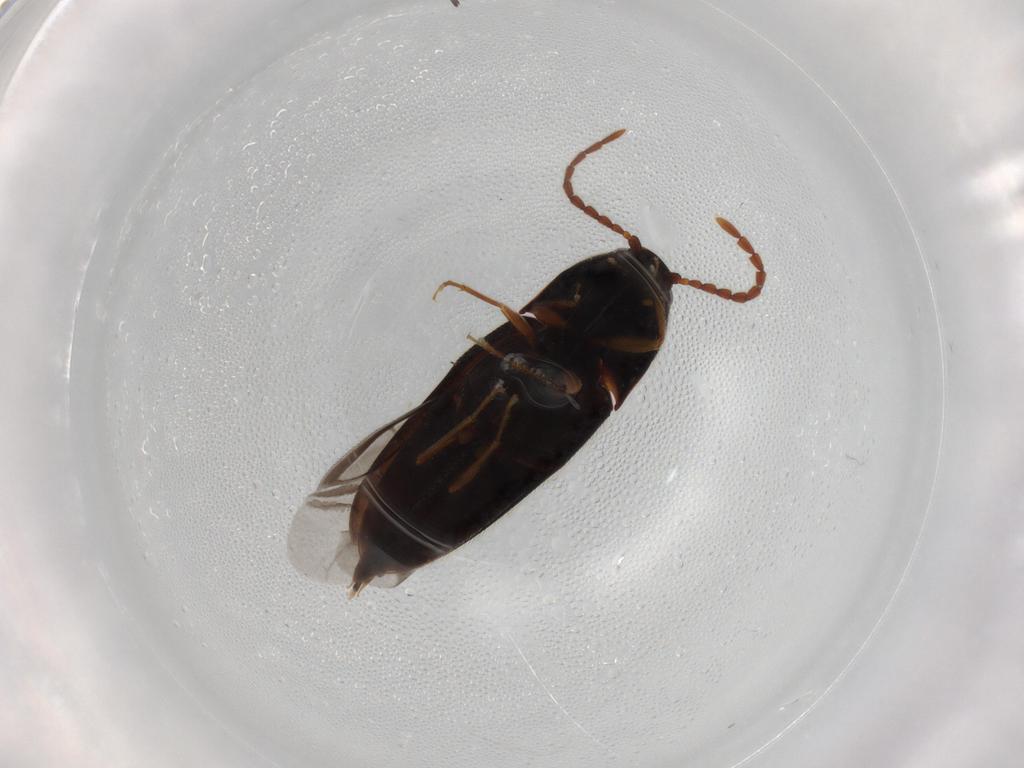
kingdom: Animalia
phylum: Arthropoda
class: Insecta
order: Coleoptera
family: Elateridae
